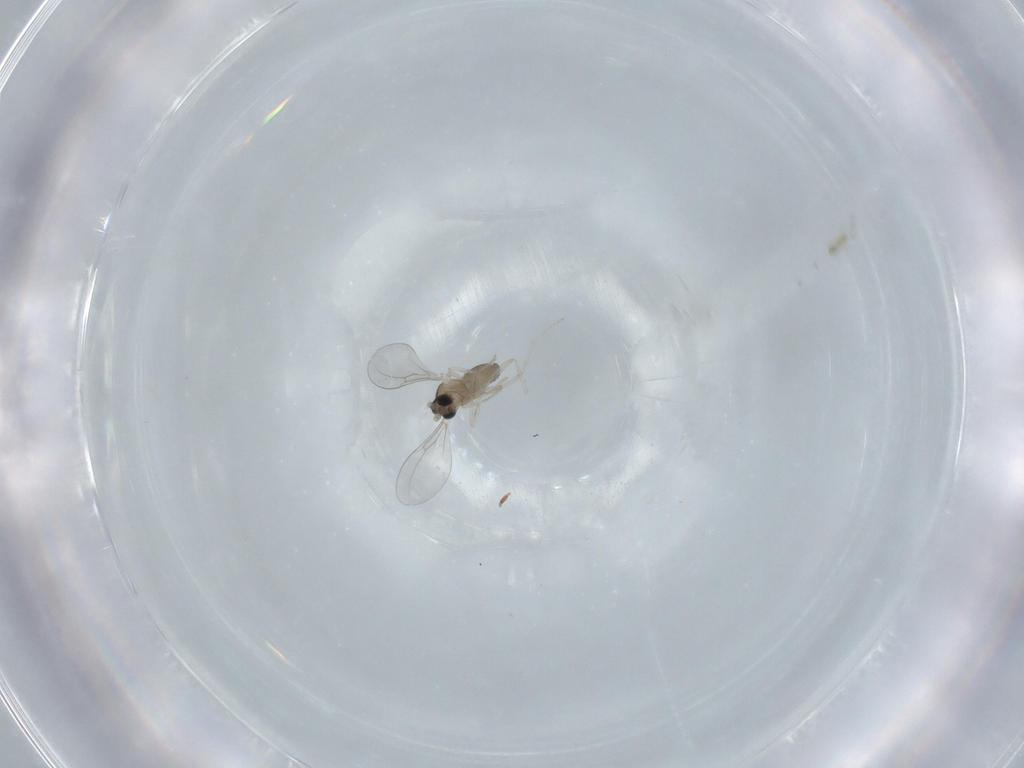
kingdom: Animalia
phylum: Arthropoda
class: Insecta
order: Diptera
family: Cecidomyiidae
